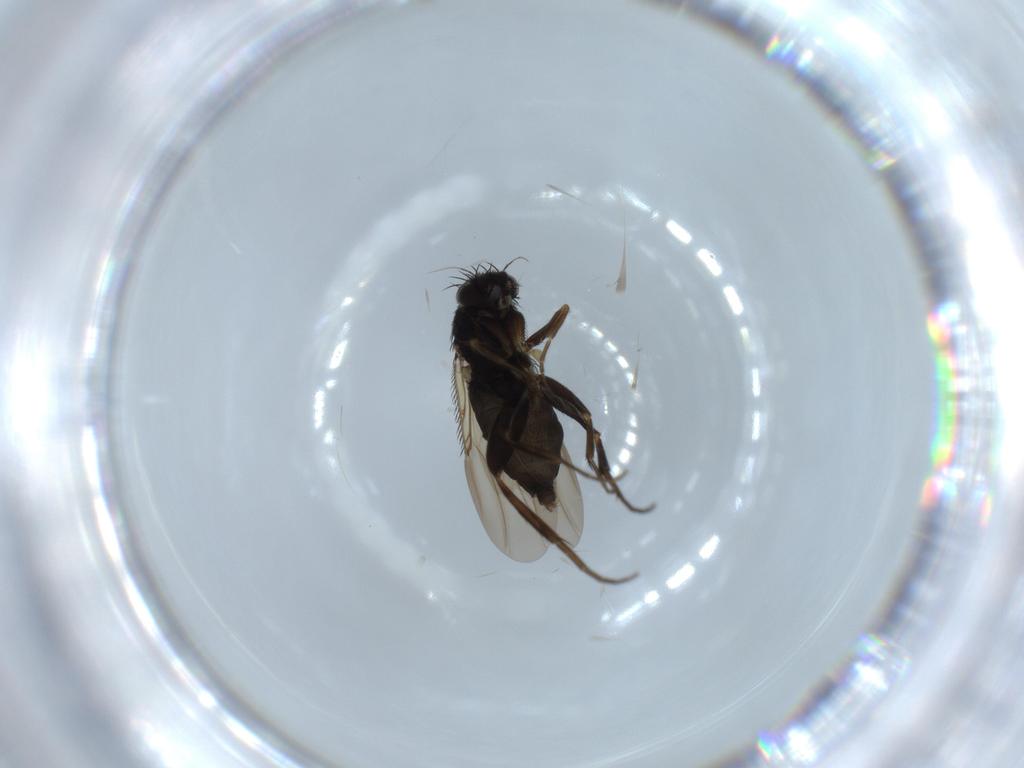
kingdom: Animalia
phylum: Arthropoda
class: Insecta
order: Diptera
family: Phoridae
